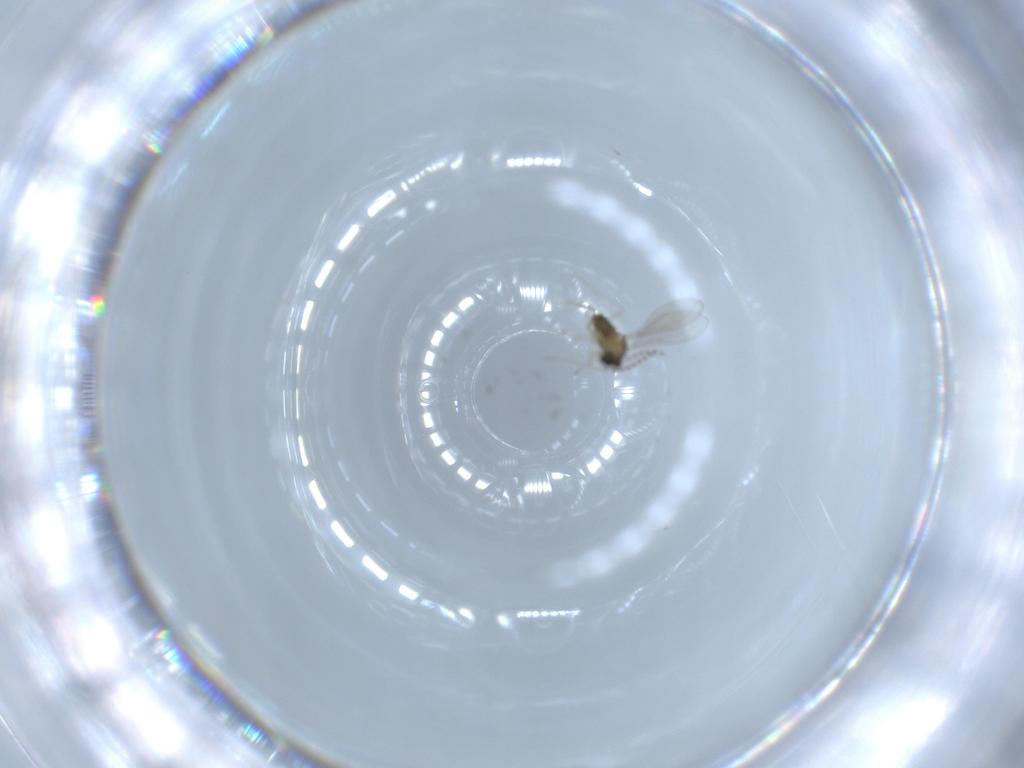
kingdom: Animalia
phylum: Arthropoda
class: Insecta
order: Diptera
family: Cecidomyiidae
